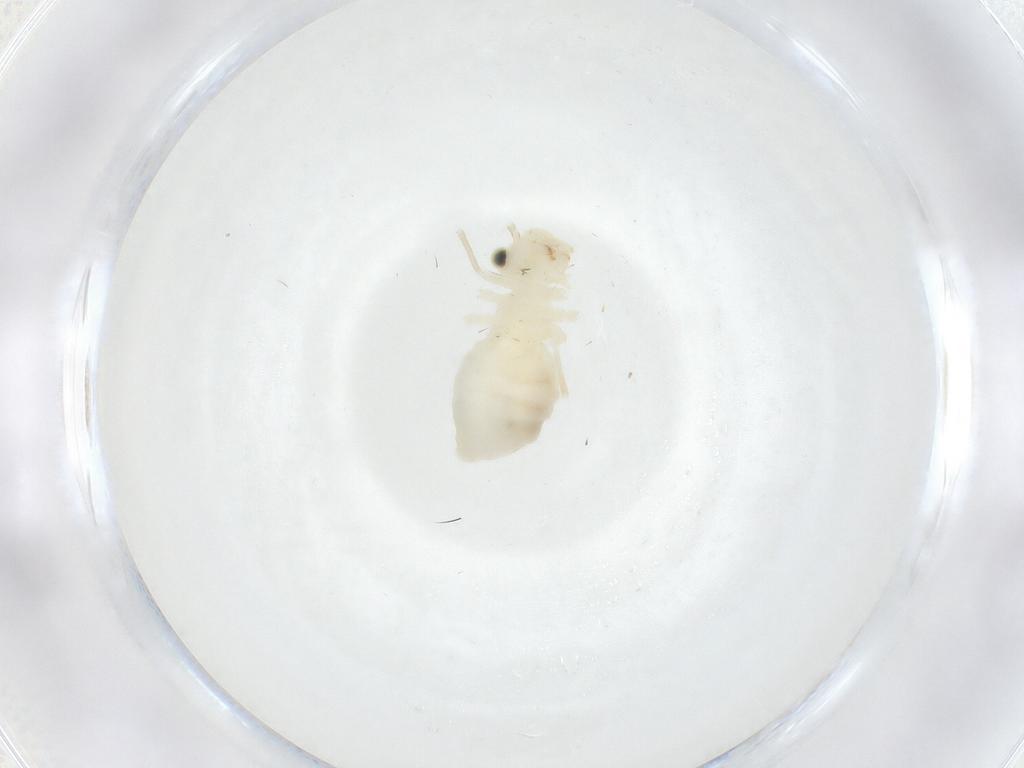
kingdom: Animalia
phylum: Arthropoda
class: Insecta
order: Psocodea
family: Caeciliusidae
